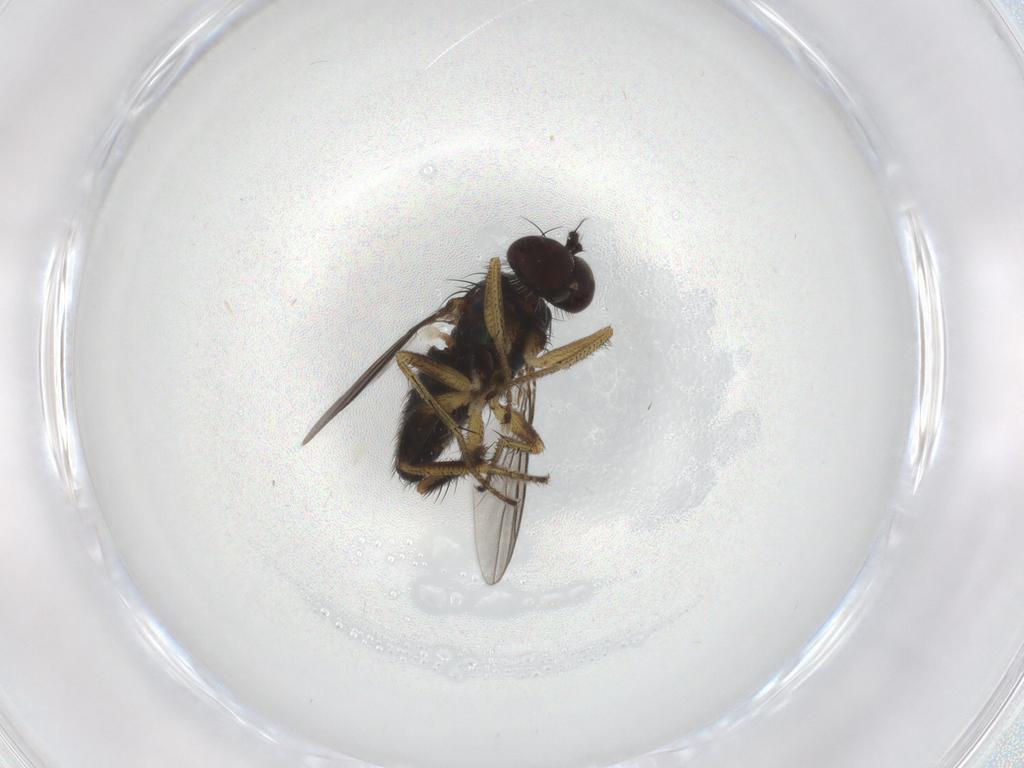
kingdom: Animalia
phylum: Arthropoda
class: Insecta
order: Diptera
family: Dolichopodidae
